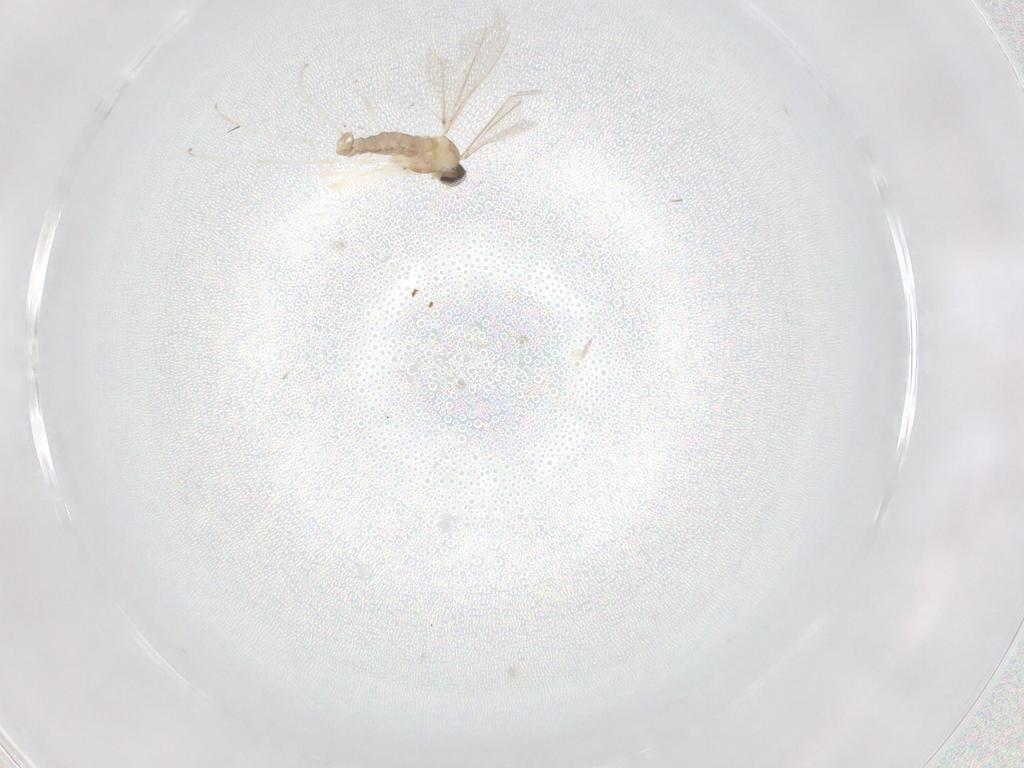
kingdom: Animalia
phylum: Arthropoda
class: Insecta
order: Diptera
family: Cecidomyiidae
